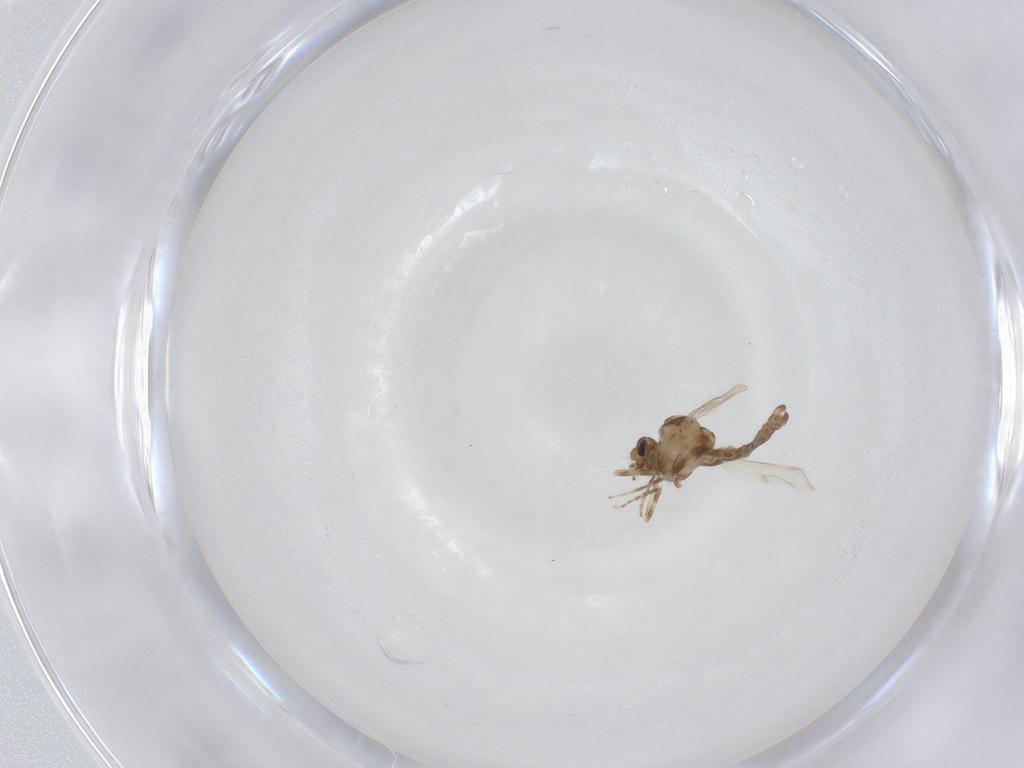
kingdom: Animalia
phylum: Arthropoda
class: Insecta
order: Diptera
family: Ceratopogonidae
